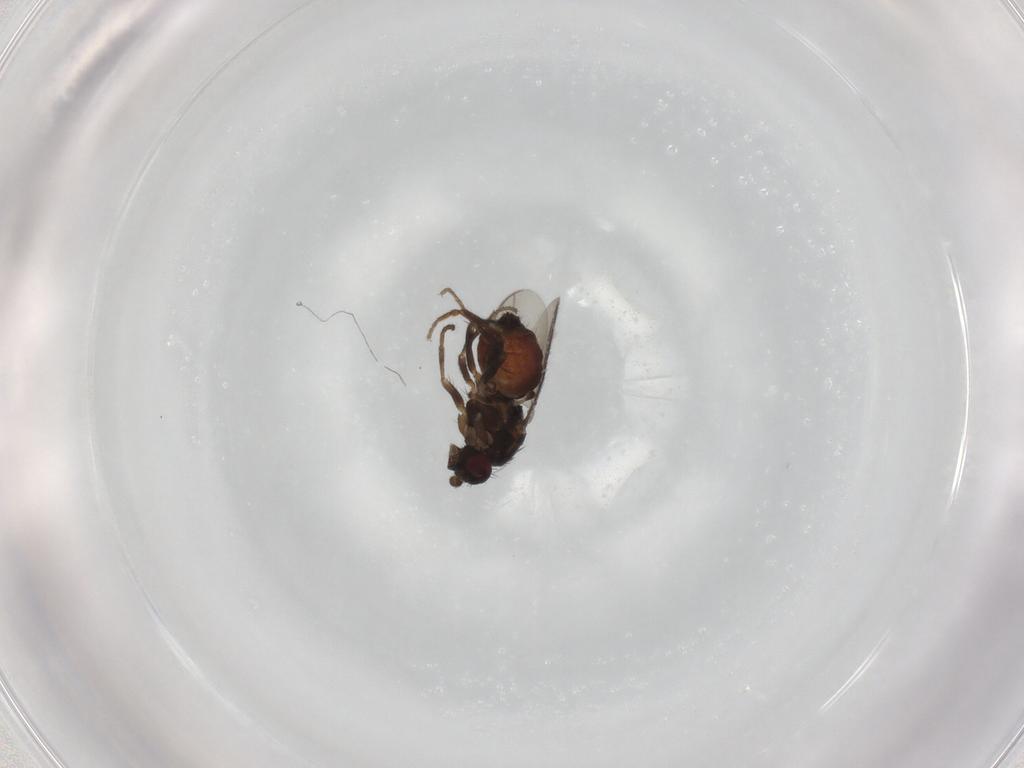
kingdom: Animalia
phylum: Arthropoda
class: Insecta
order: Diptera
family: Sphaeroceridae
